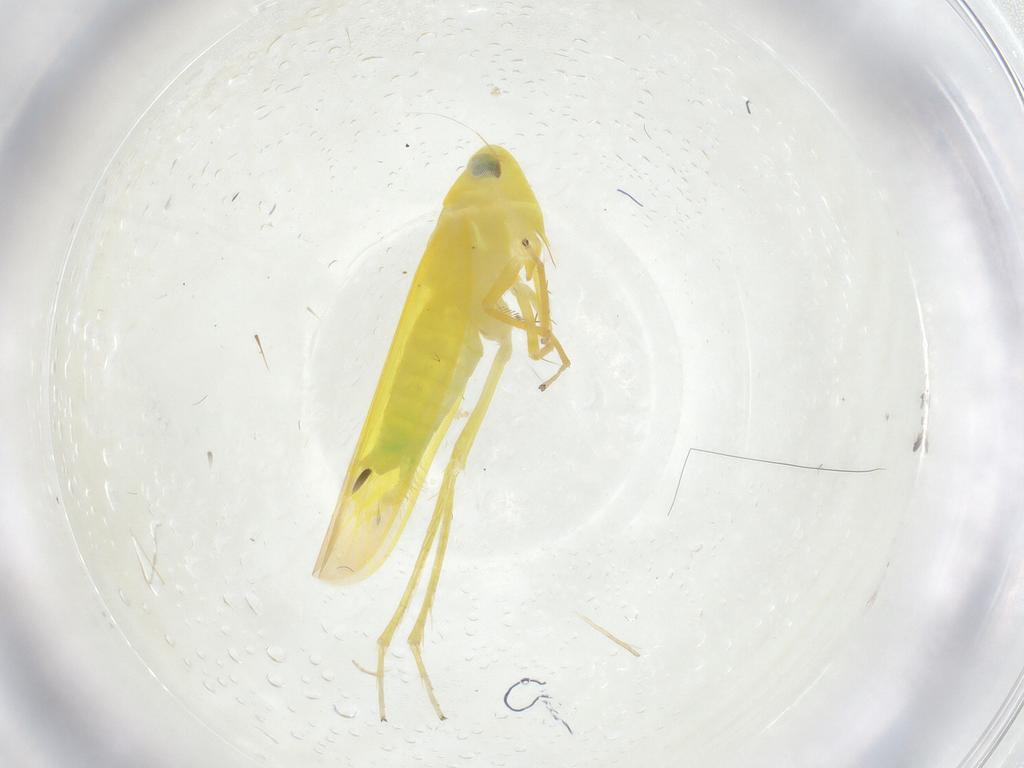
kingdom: Animalia
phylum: Arthropoda
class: Insecta
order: Hemiptera
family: Cicadellidae
